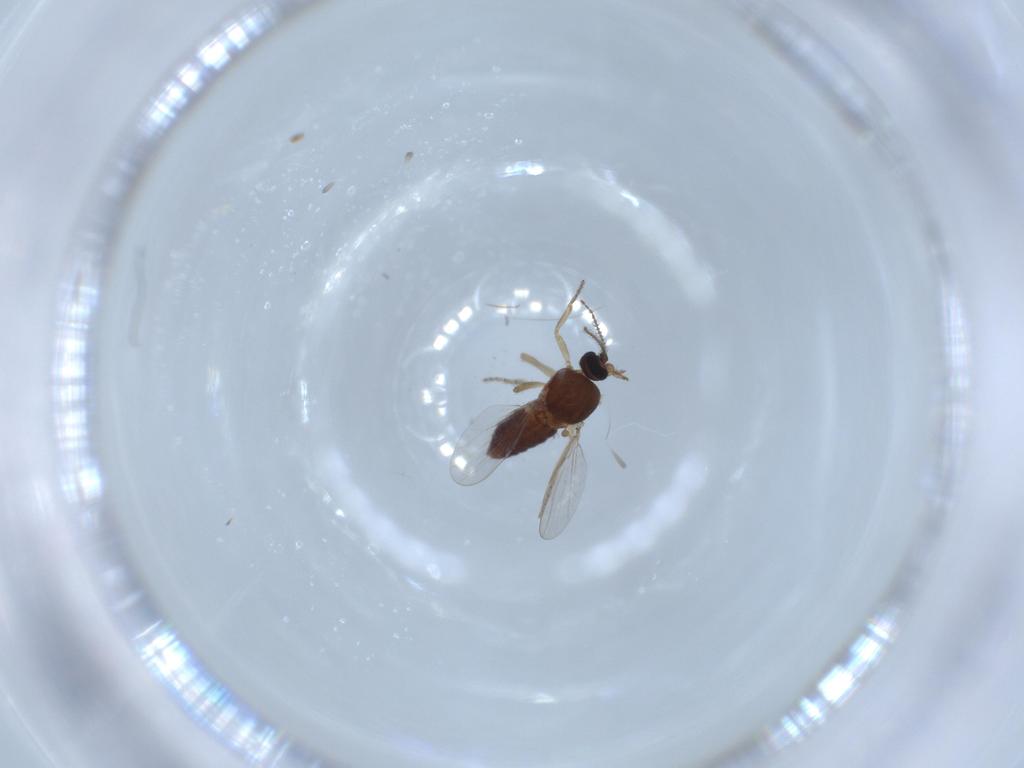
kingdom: Animalia
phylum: Arthropoda
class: Insecta
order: Diptera
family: Ceratopogonidae
